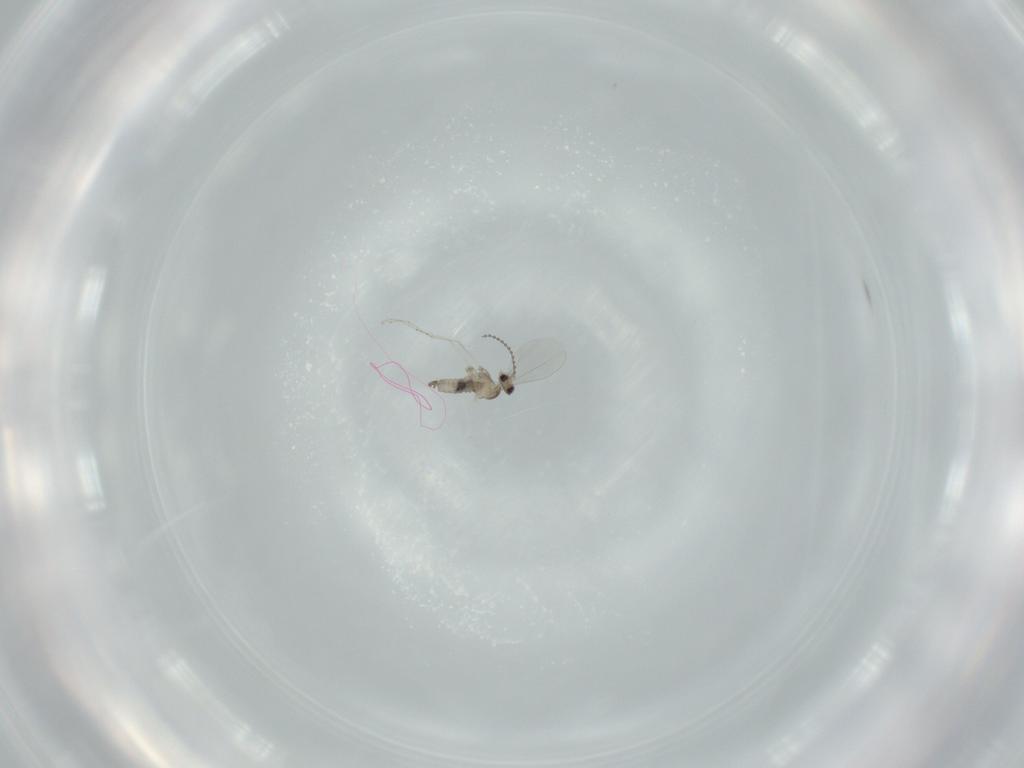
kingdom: Animalia
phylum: Arthropoda
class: Insecta
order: Diptera
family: Cecidomyiidae
